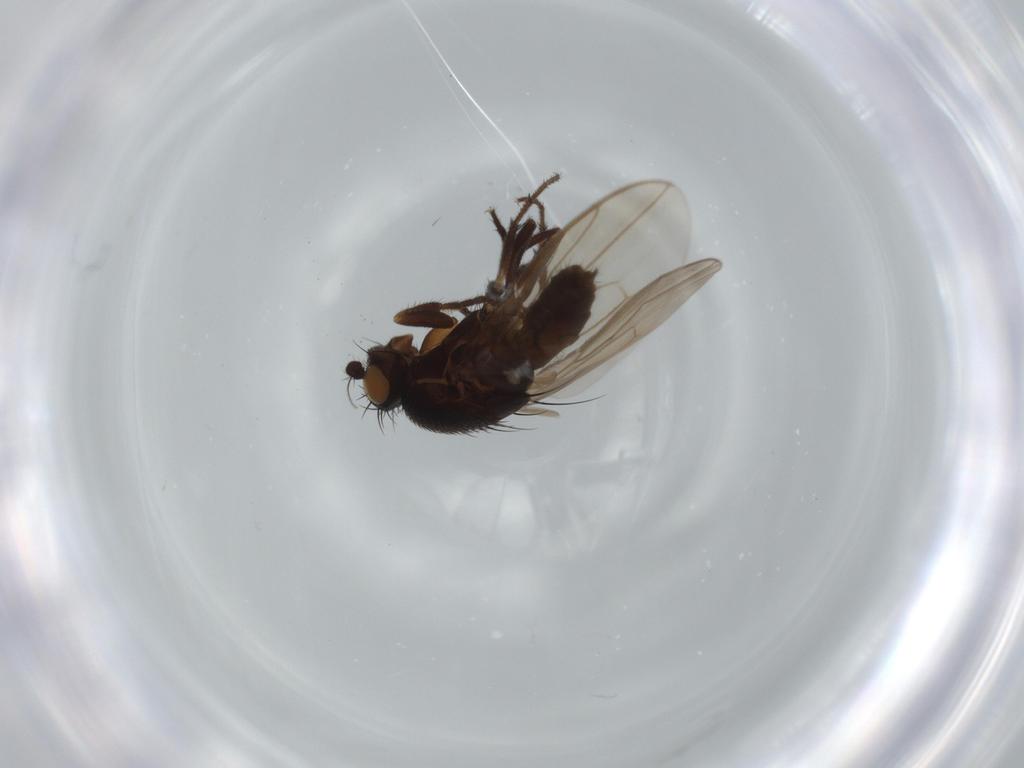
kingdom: Animalia
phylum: Arthropoda
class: Insecta
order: Diptera
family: Sphaeroceridae
